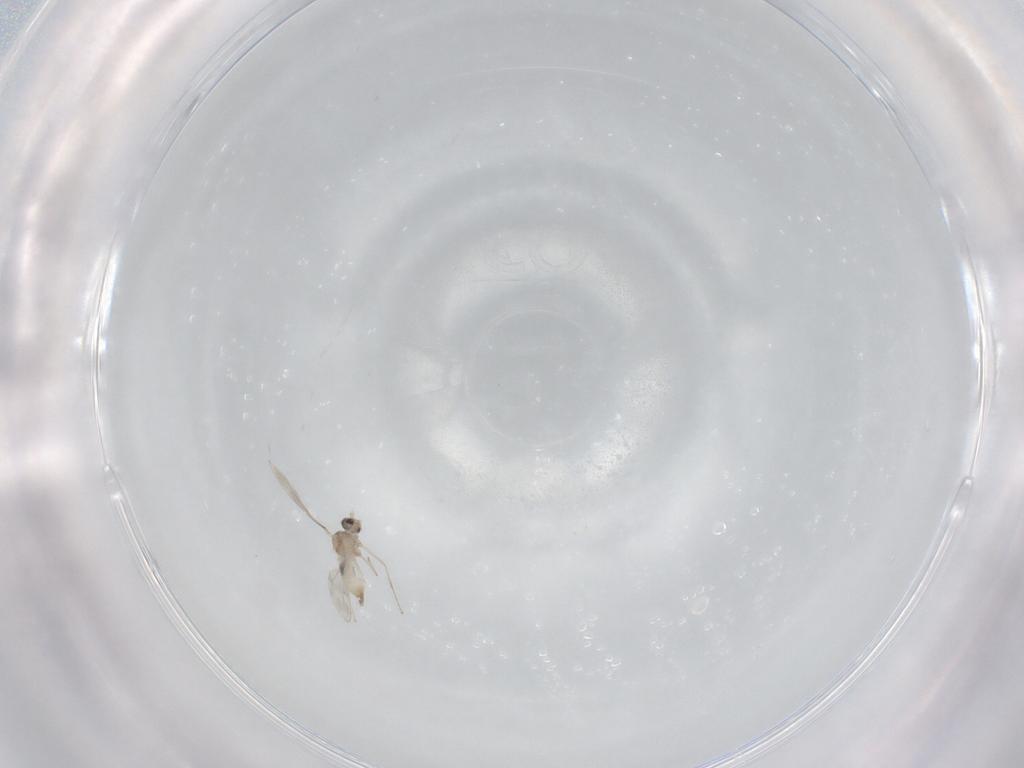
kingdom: Animalia
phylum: Arthropoda
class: Insecta
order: Diptera
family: Cecidomyiidae
